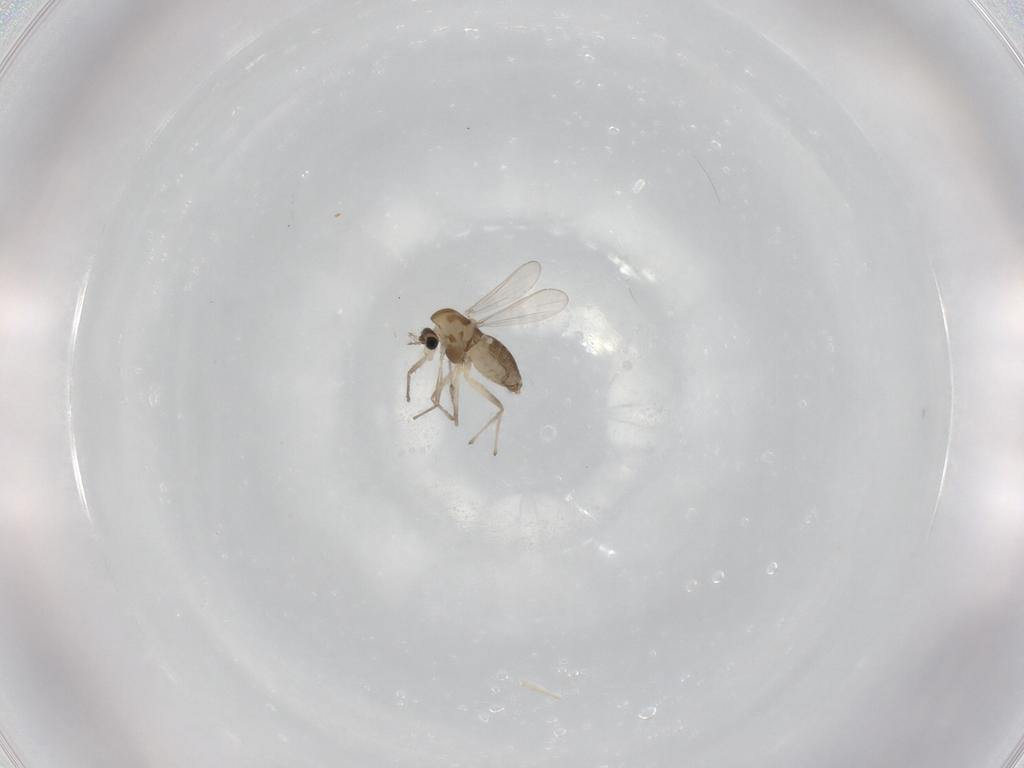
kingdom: Animalia
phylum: Arthropoda
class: Insecta
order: Diptera
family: Chironomidae
